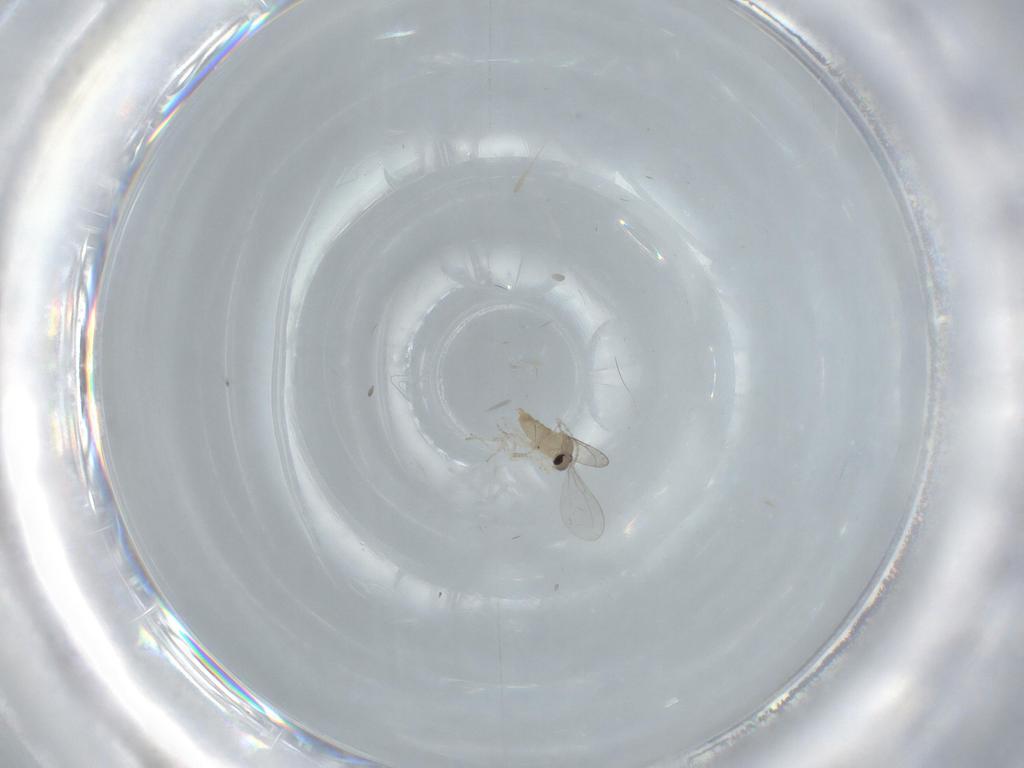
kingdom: Animalia
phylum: Arthropoda
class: Insecta
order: Diptera
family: Cecidomyiidae
